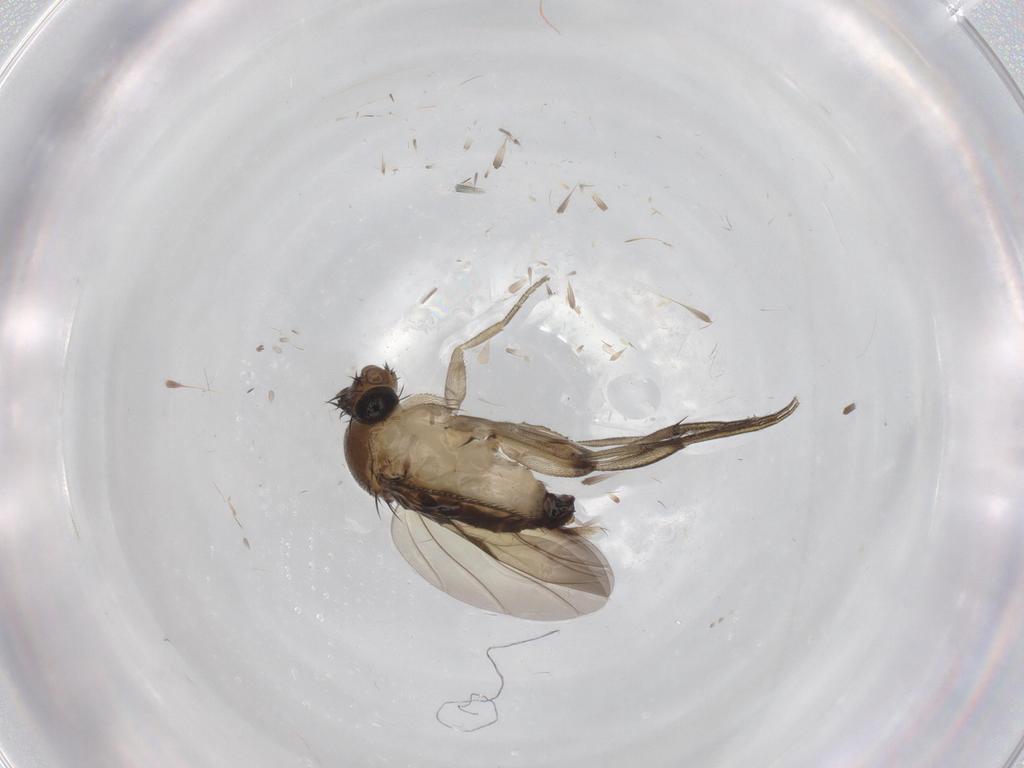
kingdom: Animalia
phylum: Arthropoda
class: Insecta
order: Diptera
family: Phoridae
